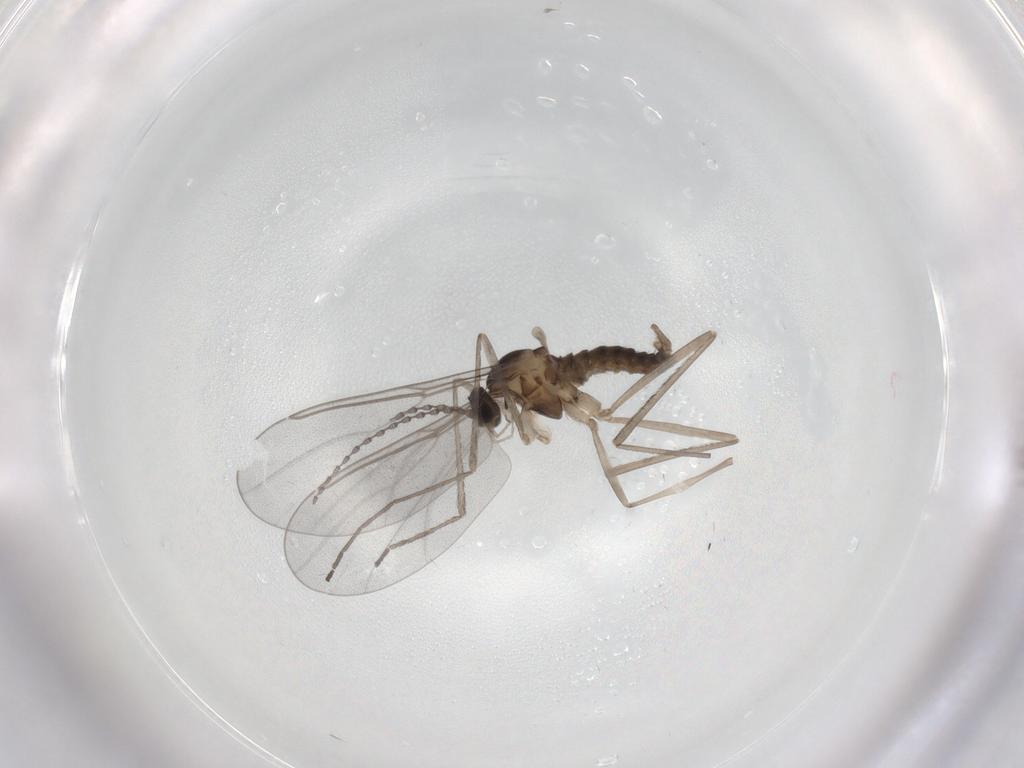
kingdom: Animalia
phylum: Arthropoda
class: Insecta
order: Diptera
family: Cecidomyiidae
